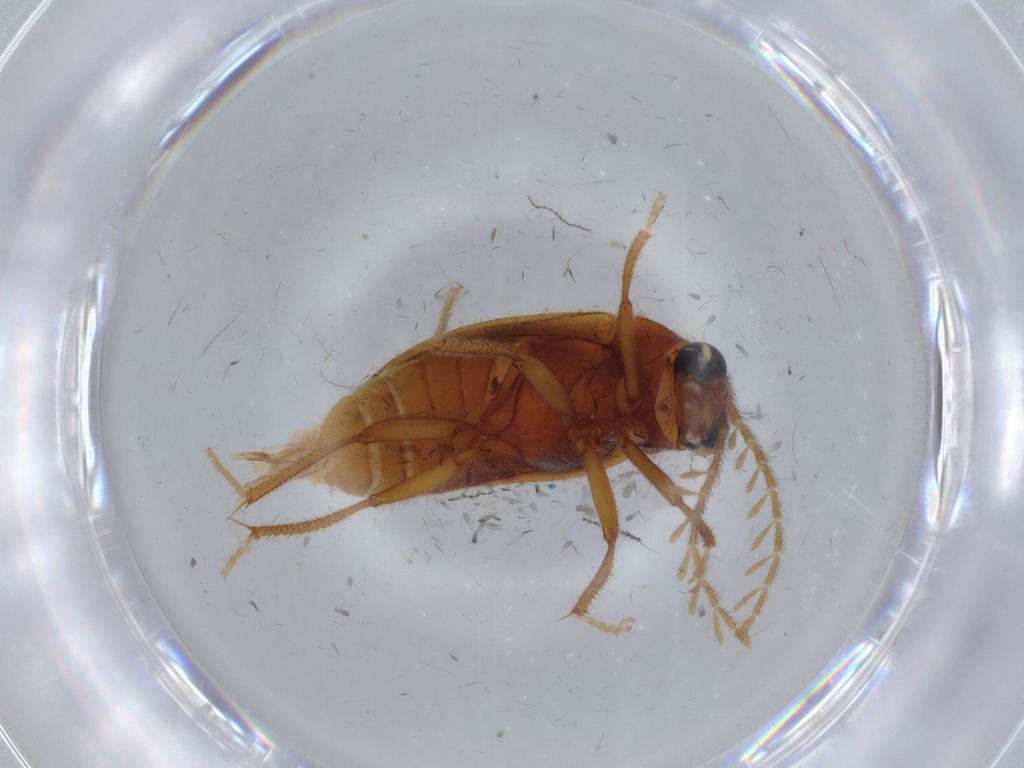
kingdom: Animalia
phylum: Arthropoda
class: Insecta
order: Coleoptera
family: Ptilodactylidae
